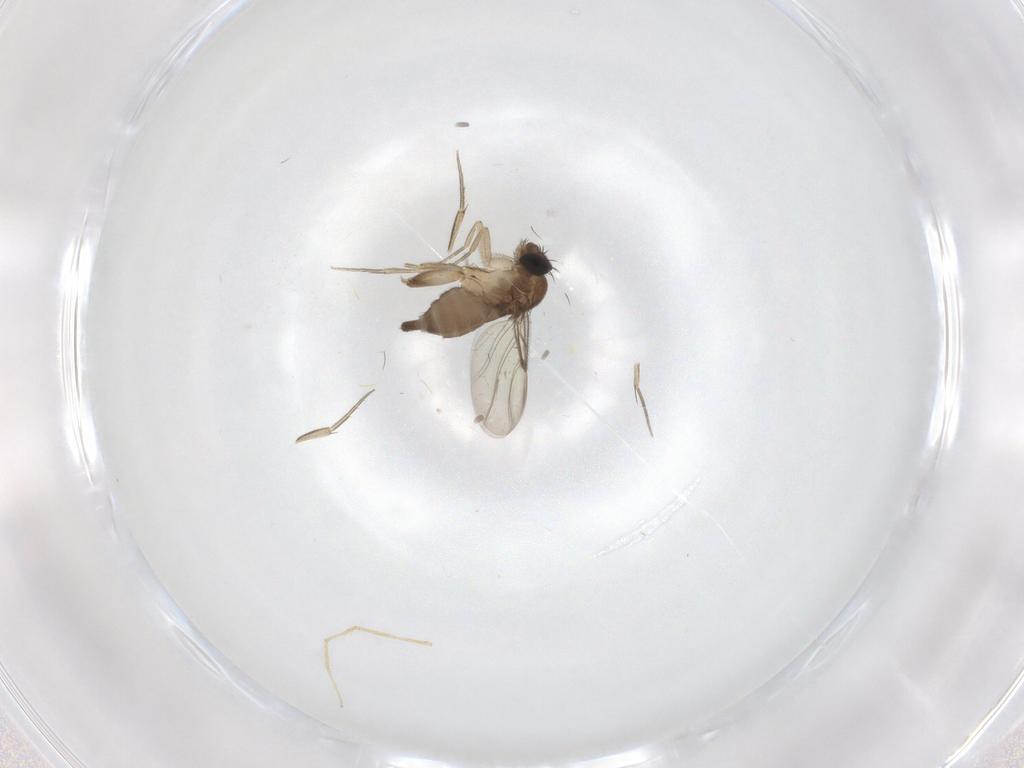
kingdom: Animalia
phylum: Arthropoda
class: Insecta
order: Diptera
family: Phoridae
